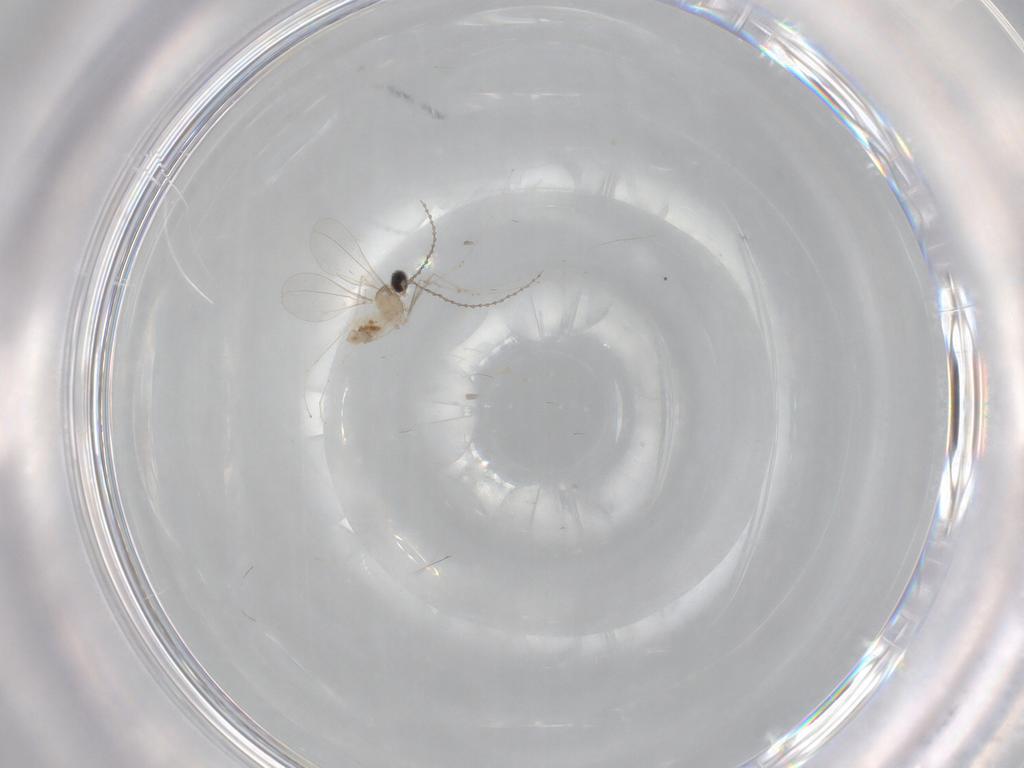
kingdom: Animalia
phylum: Arthropoda
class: Insecta
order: Diptera
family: Cecidomyiidae
